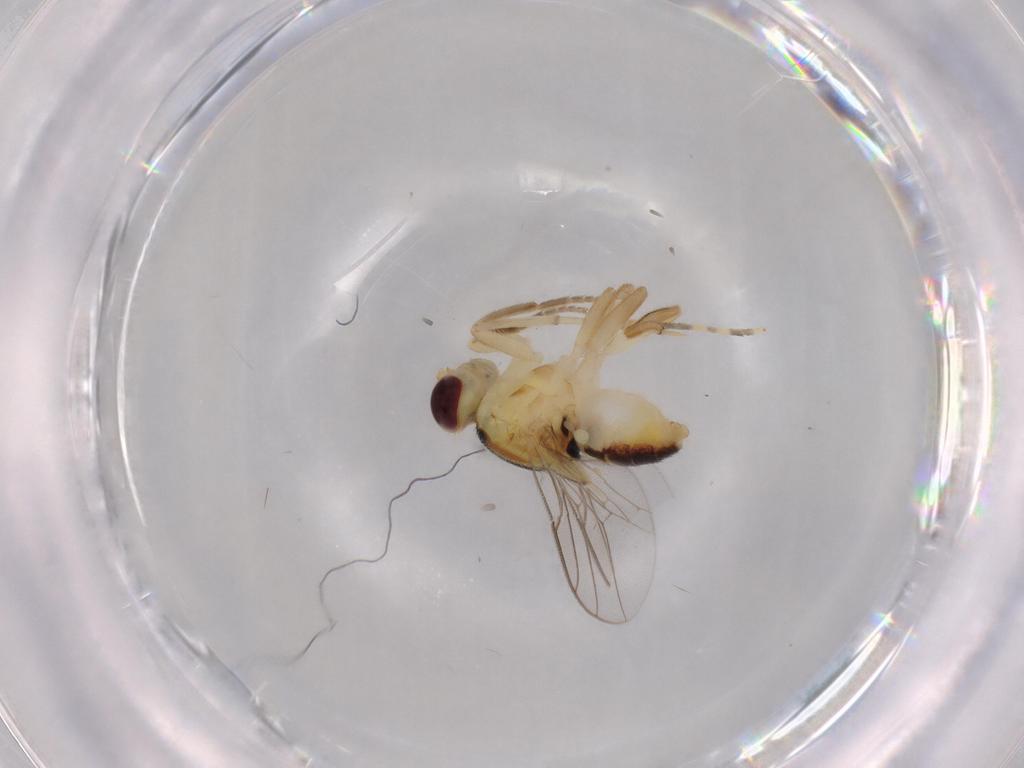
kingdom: Animalia
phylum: Arthropoda
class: Insecta
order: Diptera
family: Chloropidae
